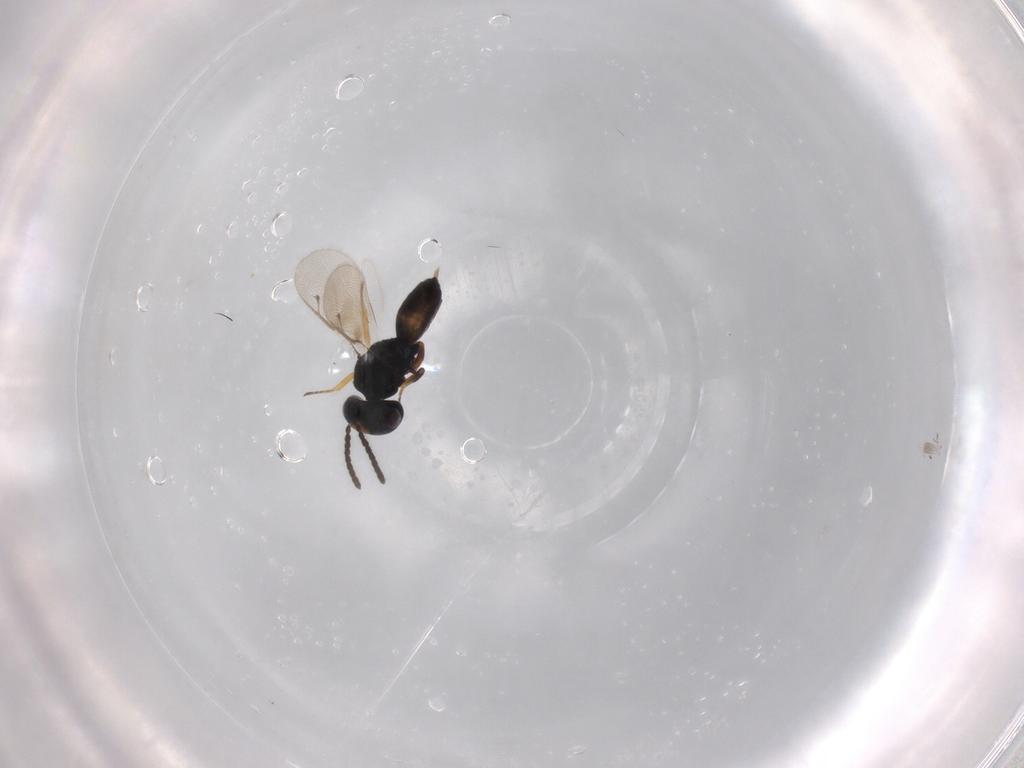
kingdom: Animalia
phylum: Arthropoda
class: Insecta
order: Hymenoptera
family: Pteromalidae
